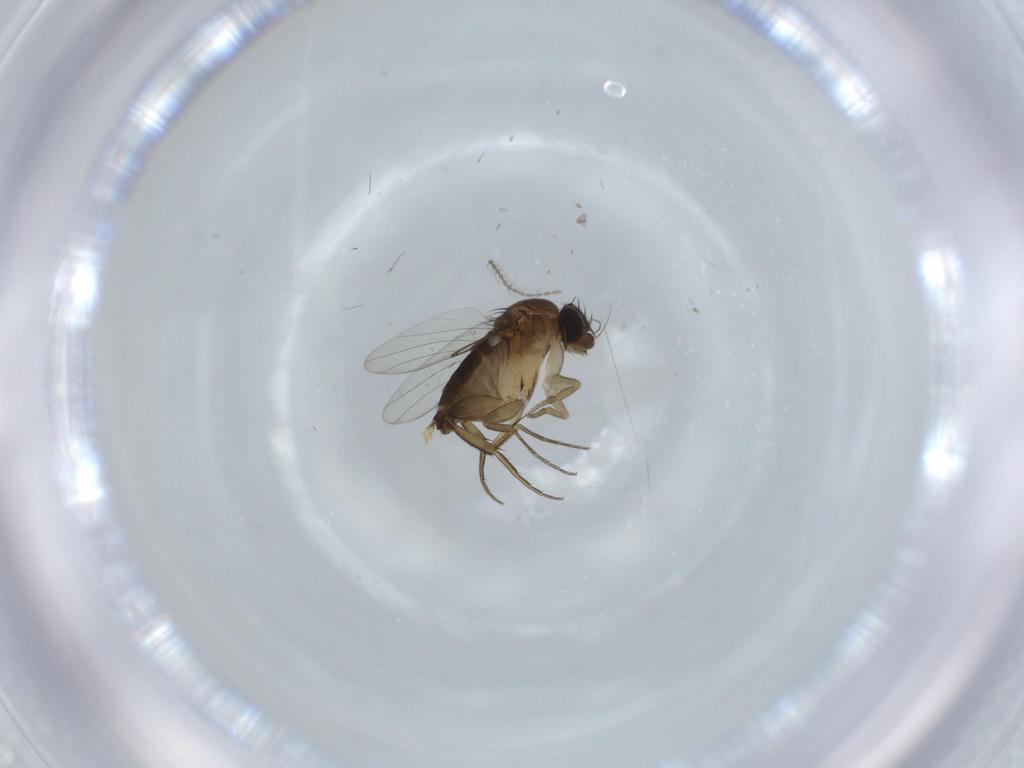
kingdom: Animalia
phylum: Arthropoda
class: Insecta
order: Diptera
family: Phoridae
